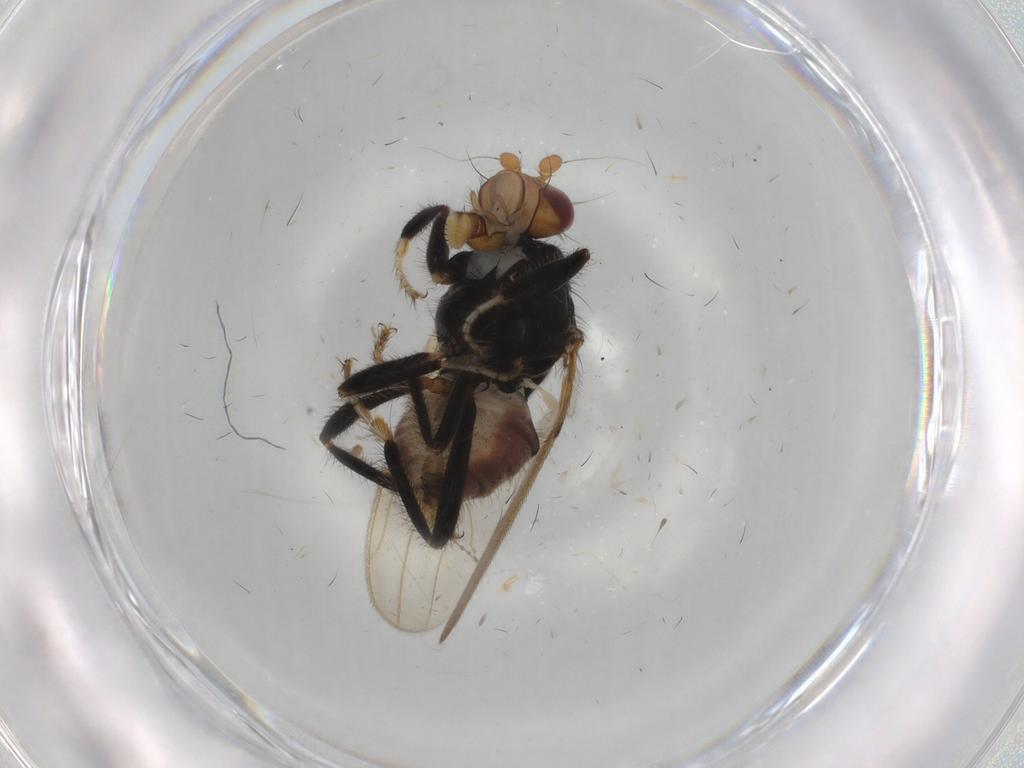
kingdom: Animalia
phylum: Arthropoda
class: Insecta
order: Diptera
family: Sphaeroceridae
